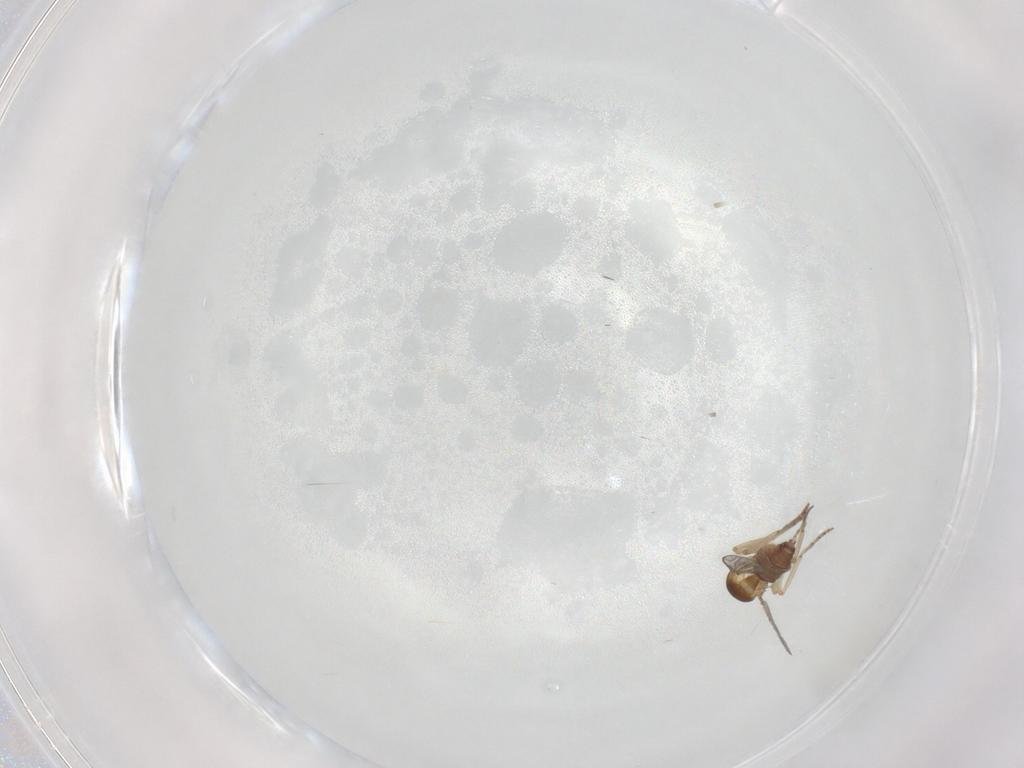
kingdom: Animalia
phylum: Arthropoda
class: Insecta
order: Diptera
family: Ceratopogonidae
